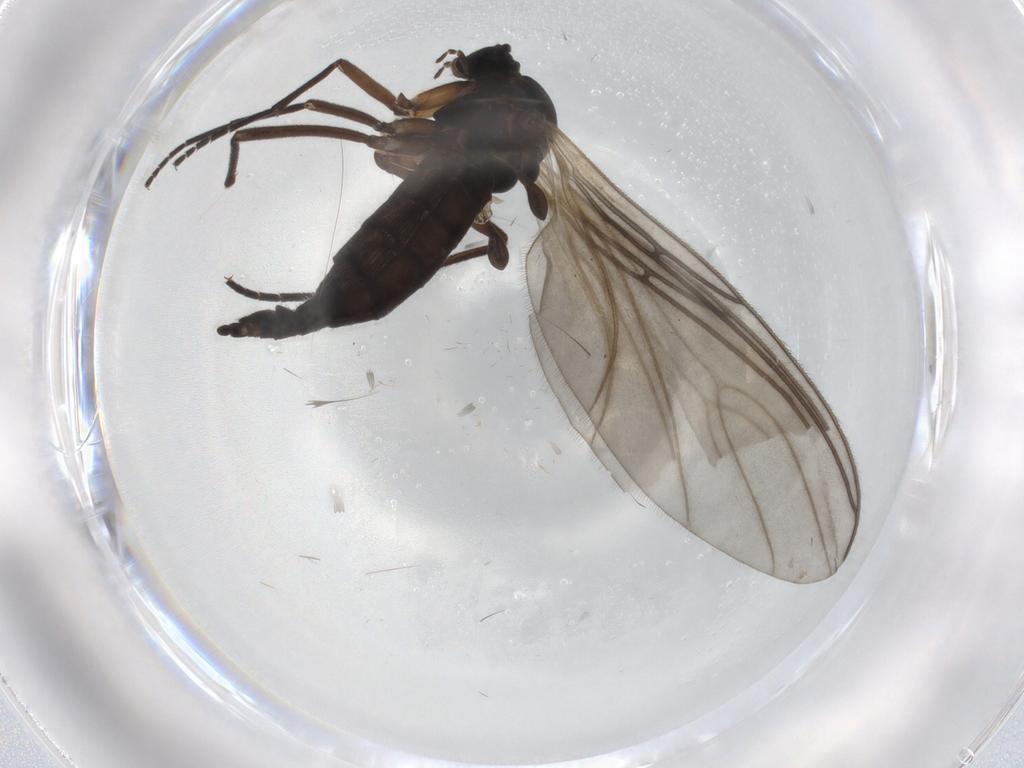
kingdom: Animalia
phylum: Arthropoda
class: Insecta
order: Diptera
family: Sciaridae
